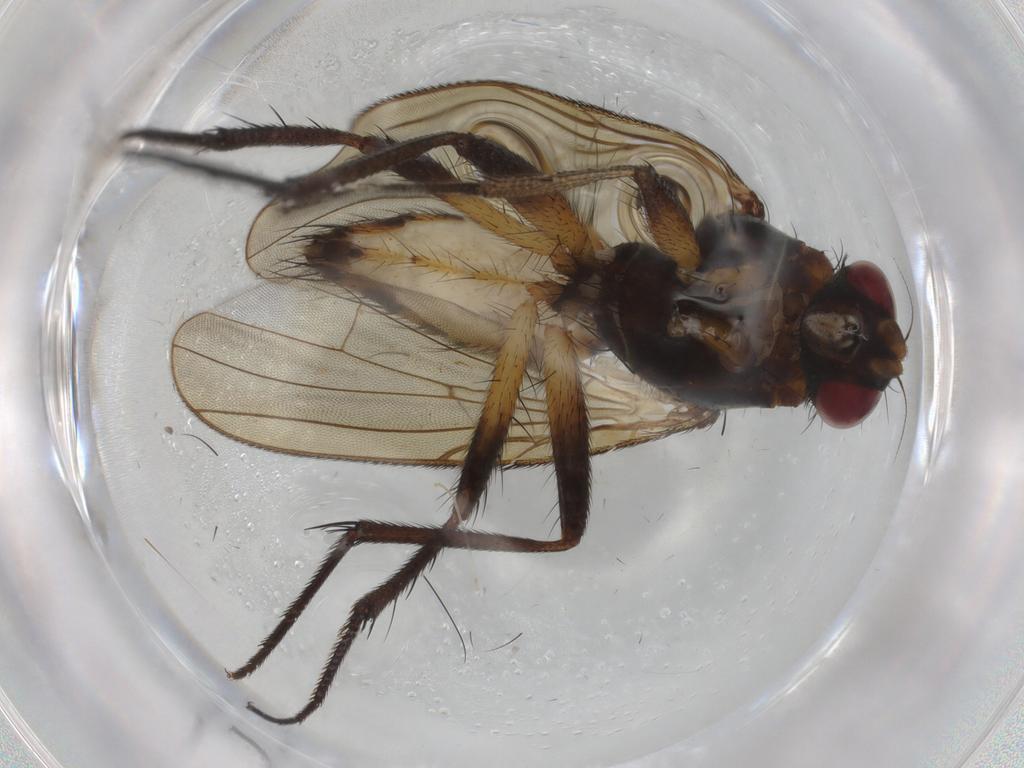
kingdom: Animalia
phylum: Arthropoda
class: Insecta
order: Diptera
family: Anthomyiidae
